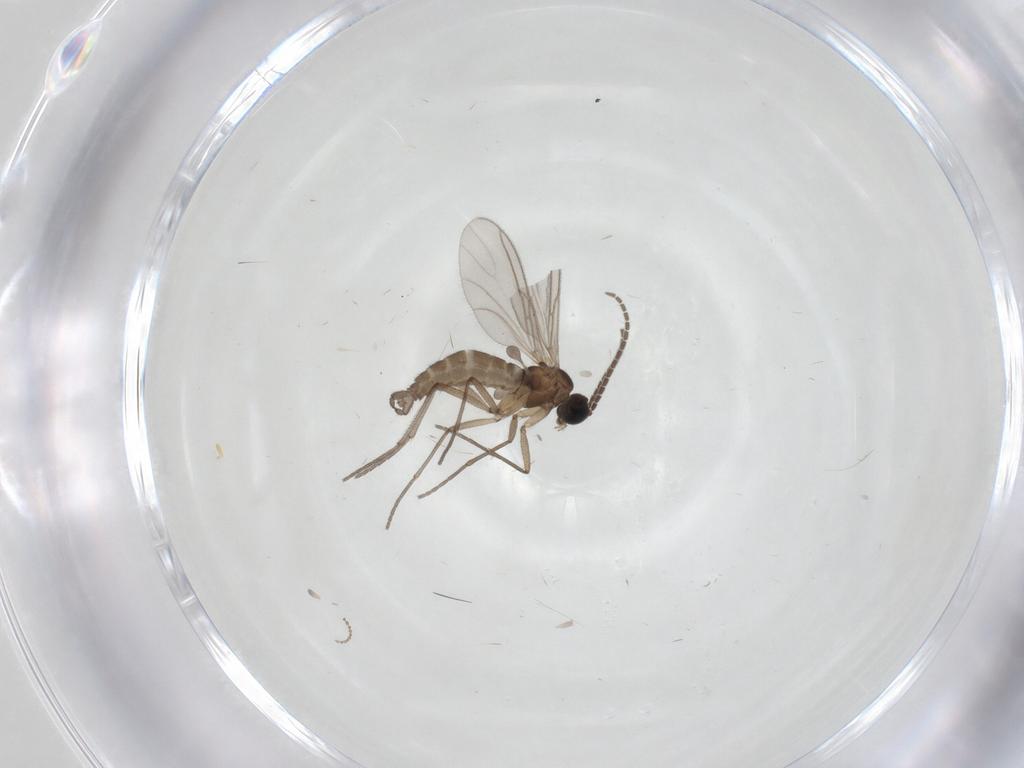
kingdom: Animalia
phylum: Arthropoda
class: Insecta
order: Diptera
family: Sciaridae
